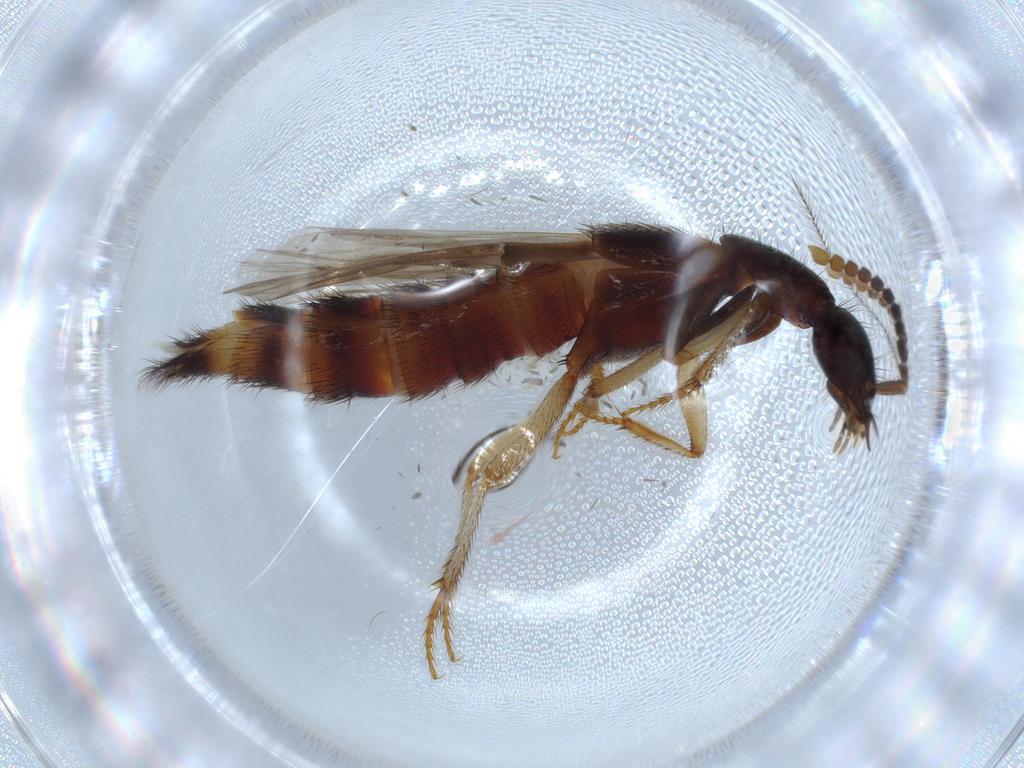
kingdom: Animalia
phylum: Arthropoda
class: Insecta
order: Coleoptera
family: Staphylinidae
